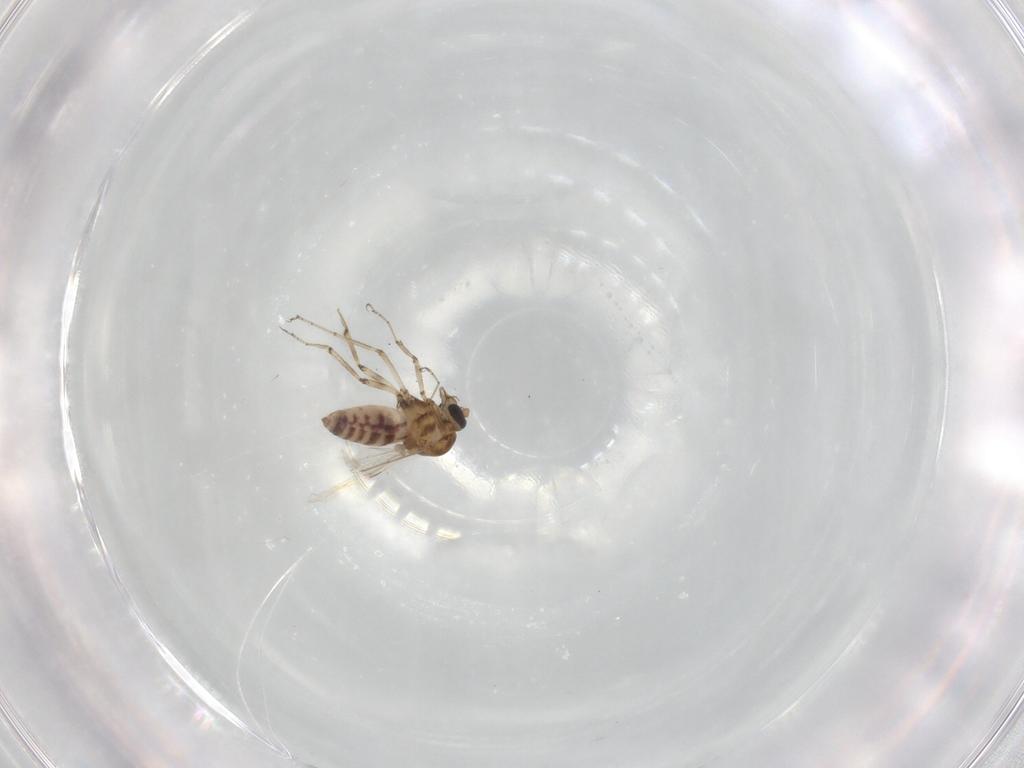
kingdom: Animalia
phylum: Arthropoda
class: Insecta
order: Diptera
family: Ceratopogonidae
